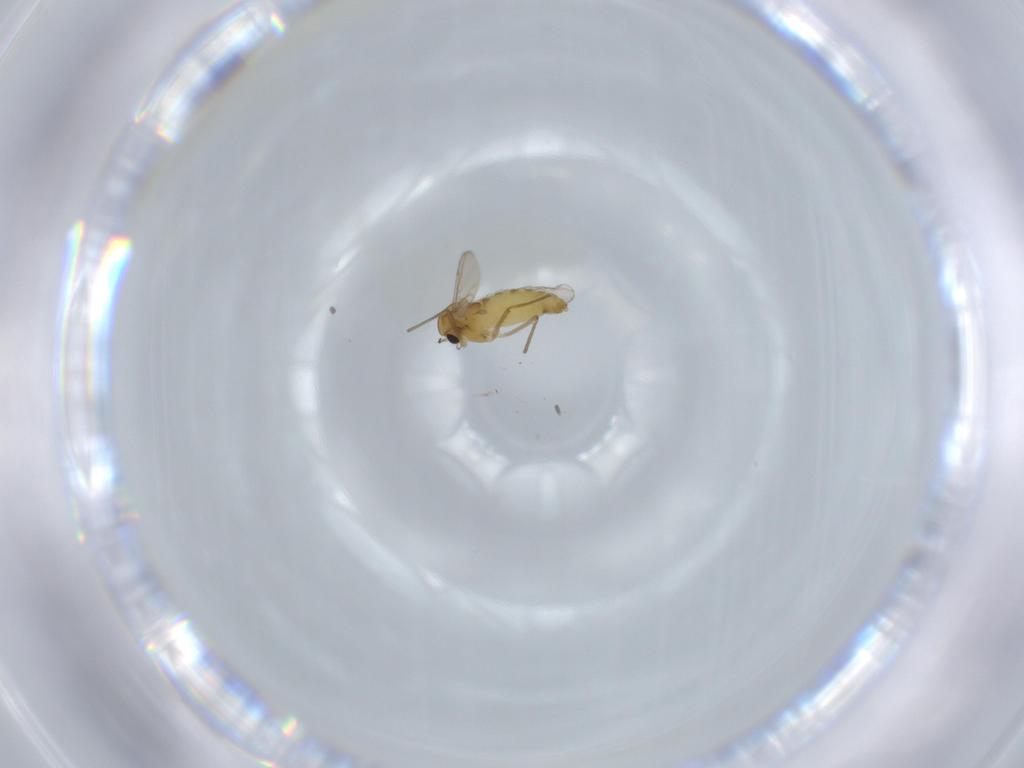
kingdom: Animalia
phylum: Arthropoda
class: Insecta
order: Diptera
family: Chironomidae
